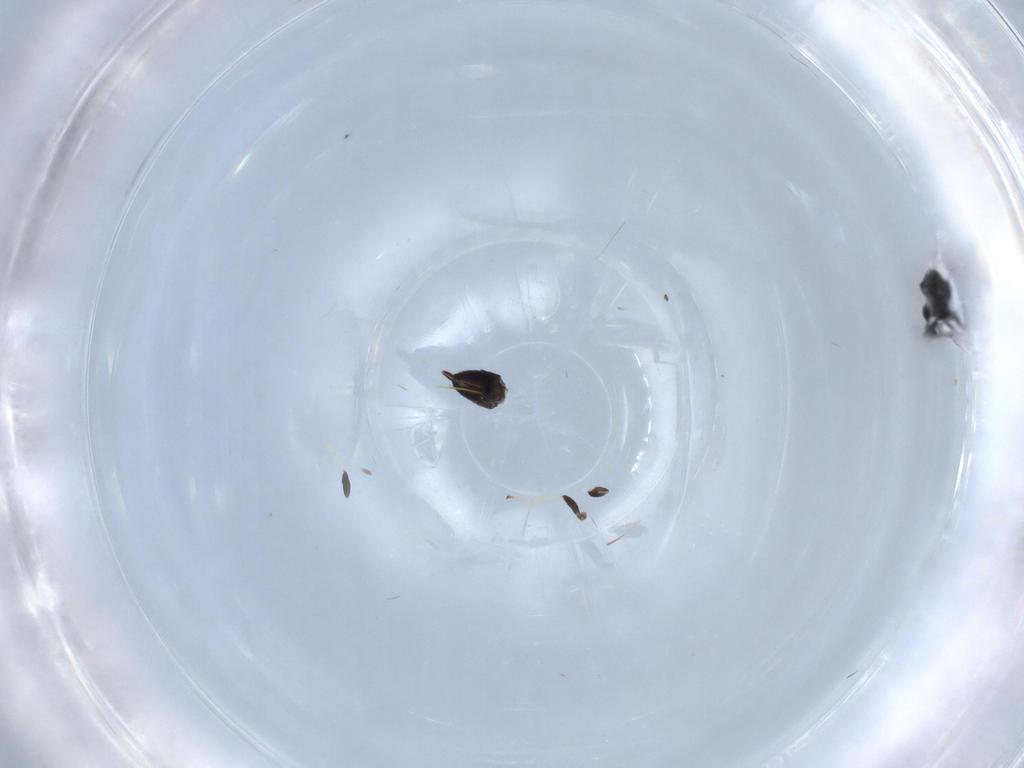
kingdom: Animalia
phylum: Arthropoda
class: Insecta
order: Hymenoptera
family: Pirenidae
